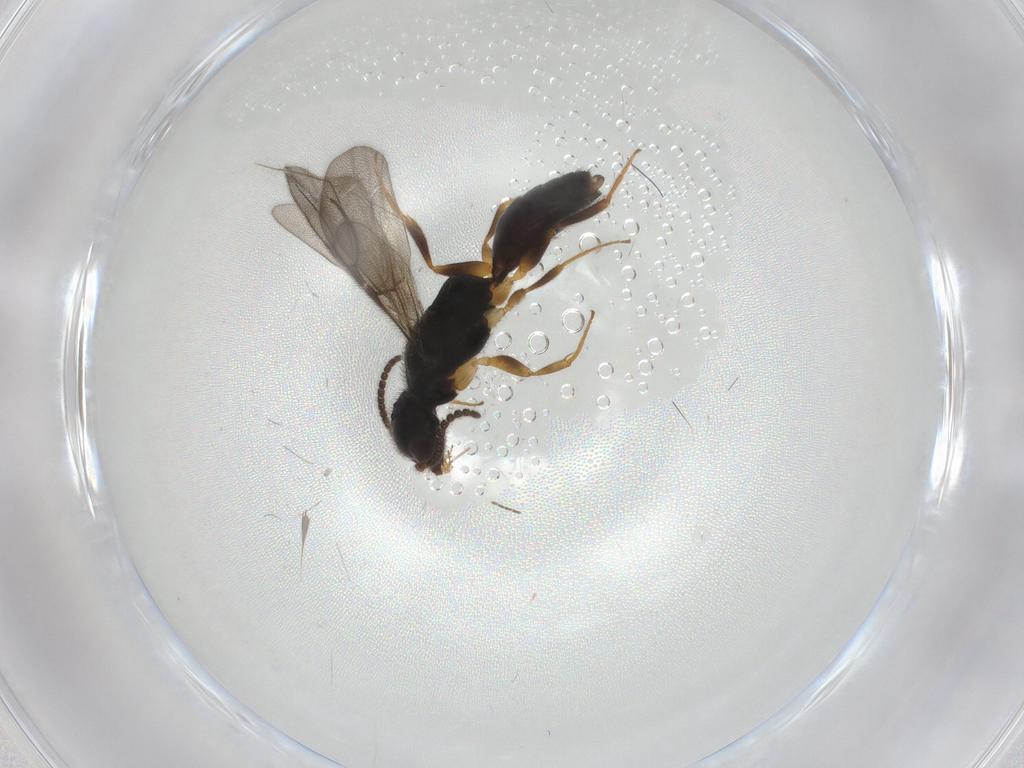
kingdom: Animalia
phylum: Arthropoda
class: Insecta
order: Hymenoptera
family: Bethylidae
